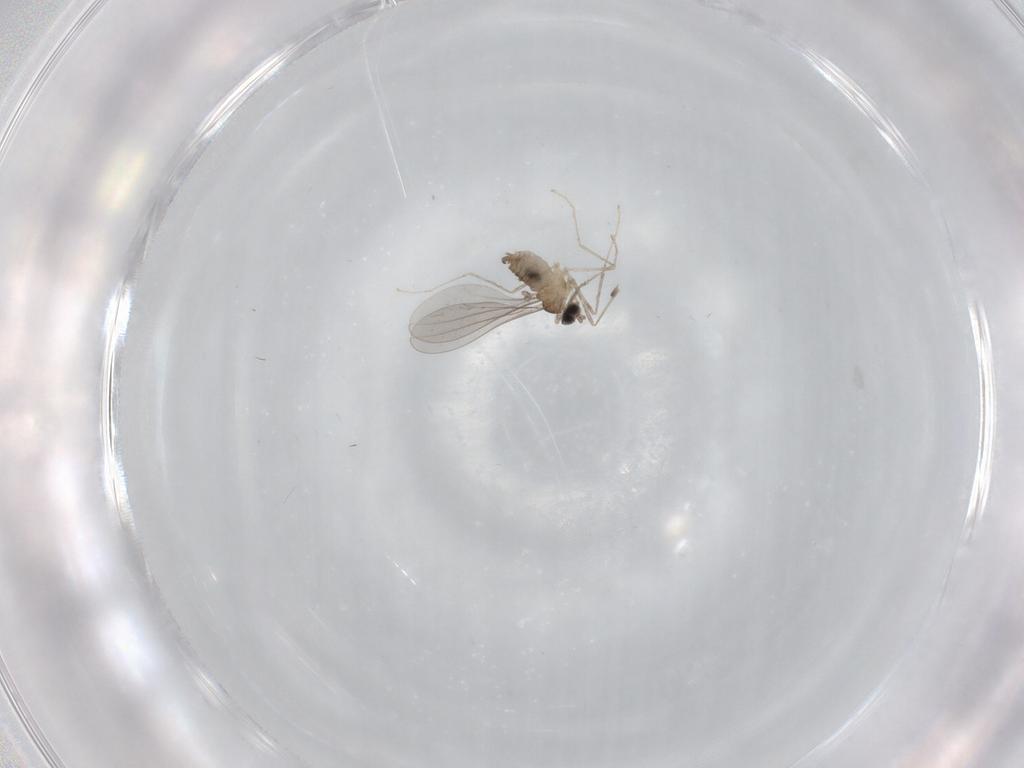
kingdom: Animalia
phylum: Arthropoda
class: Insecta
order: Diptera
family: Cecidomyiidae
